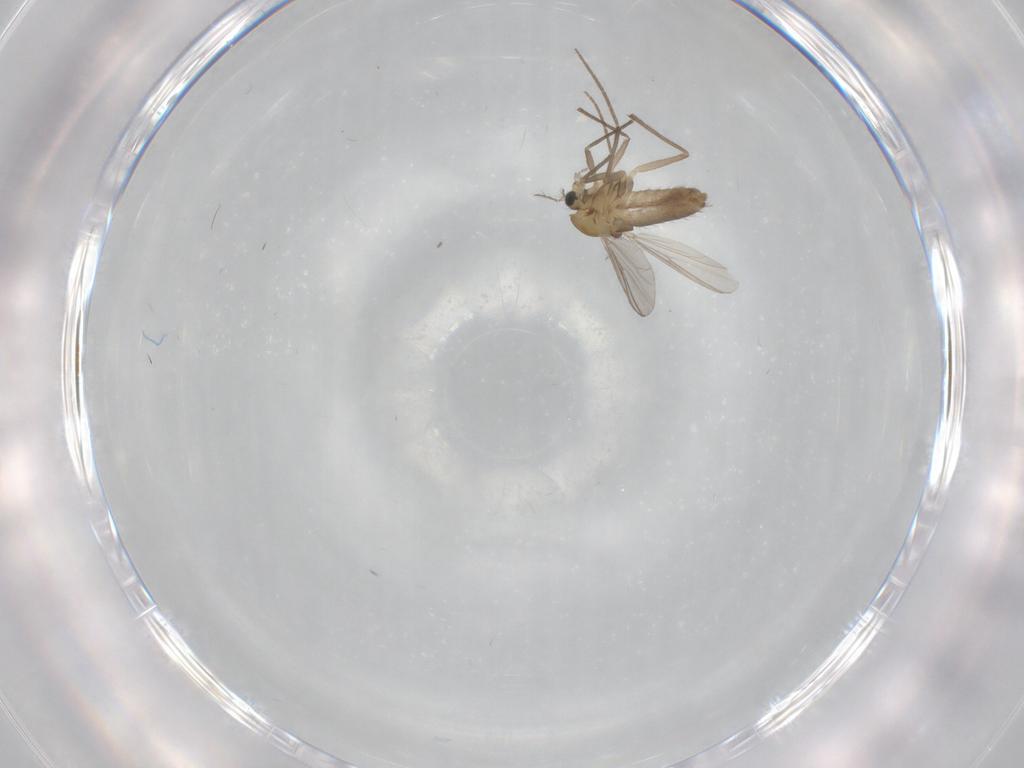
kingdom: Animalia
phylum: Arthropoda
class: Insecta
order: Diptera
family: Chironomidae
